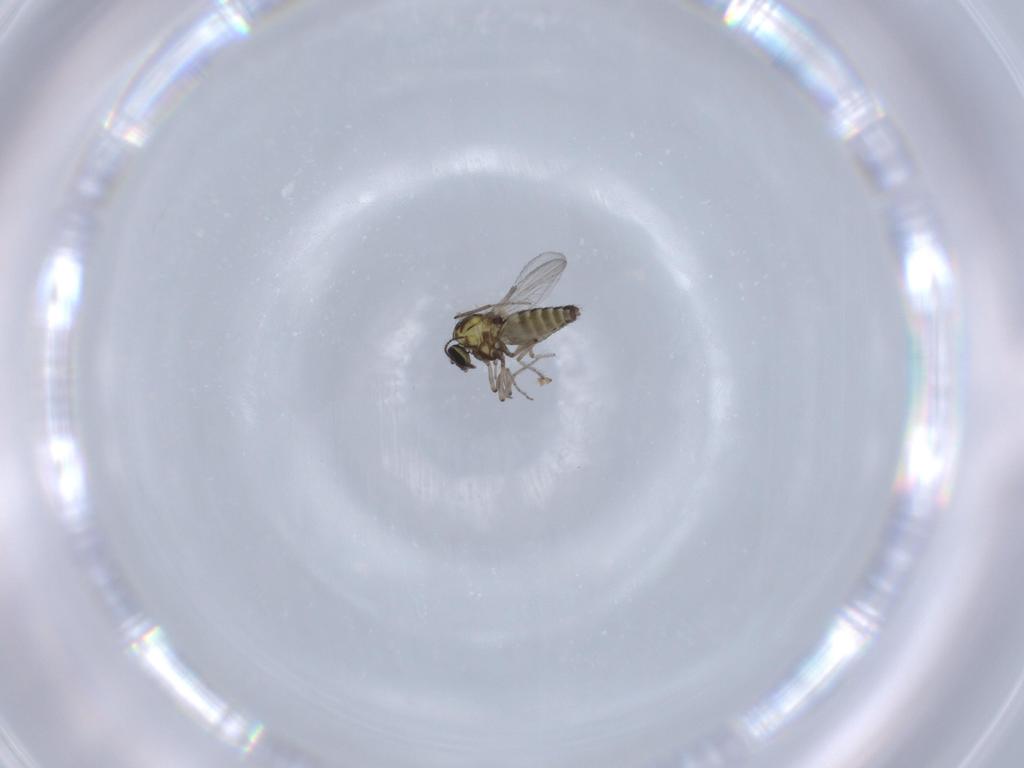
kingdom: Animalia
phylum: Arthropoda
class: Insecta
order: Diptera
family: Ceratopogonidae
